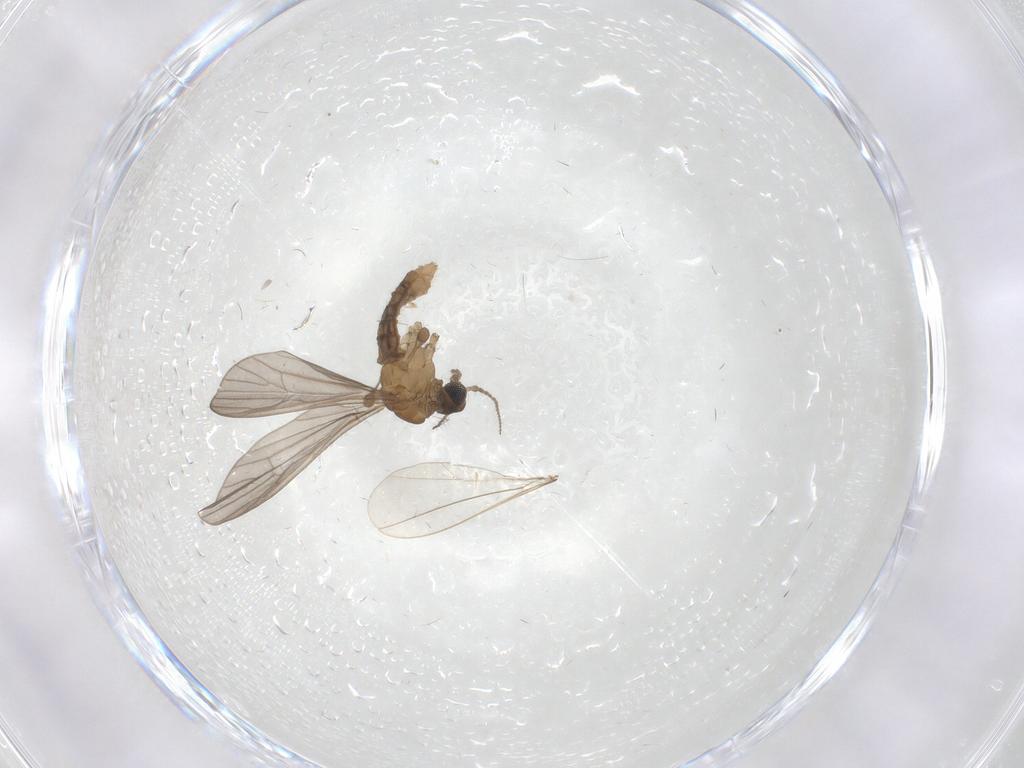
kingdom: Animalia
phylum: Arthropoda
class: Insecta
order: Diptera
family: Limoniidae
